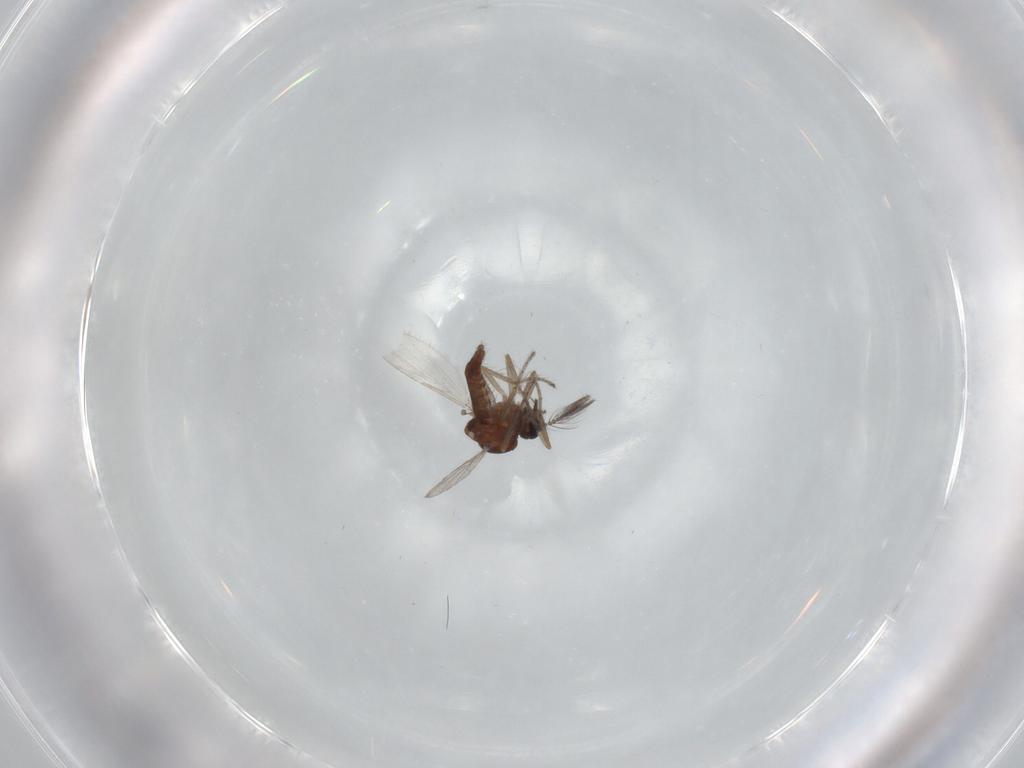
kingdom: Animalia
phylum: Arthropoda
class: Insecta
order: Diptera
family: Ceratopogonidae
